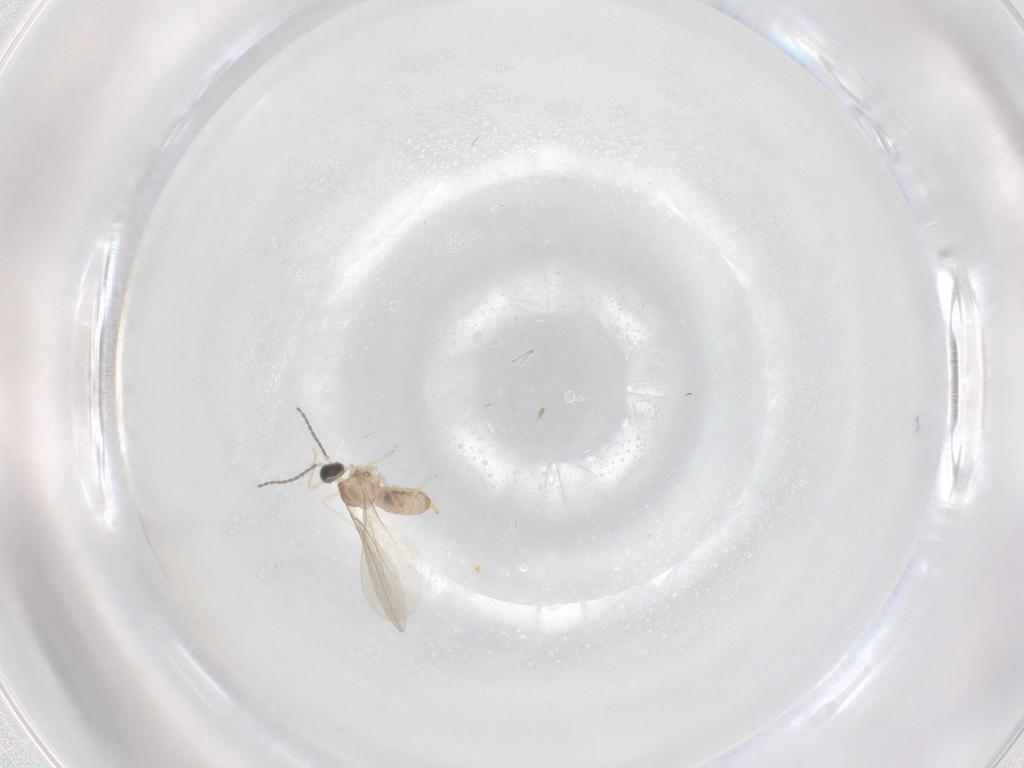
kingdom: Animalia
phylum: Arthropoda
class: Insecta
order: Diptera
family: Cecidomyiidae
